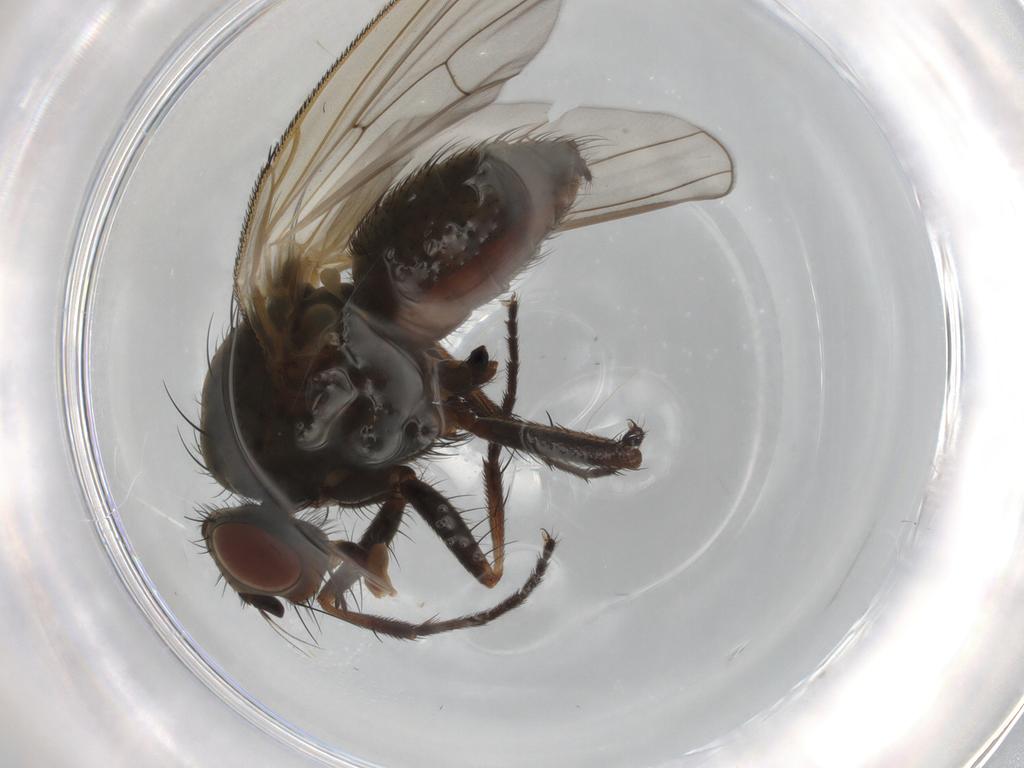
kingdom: Animalia
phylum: Arthropoda
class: Insecta
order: Diptera
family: Anthomyiidae
